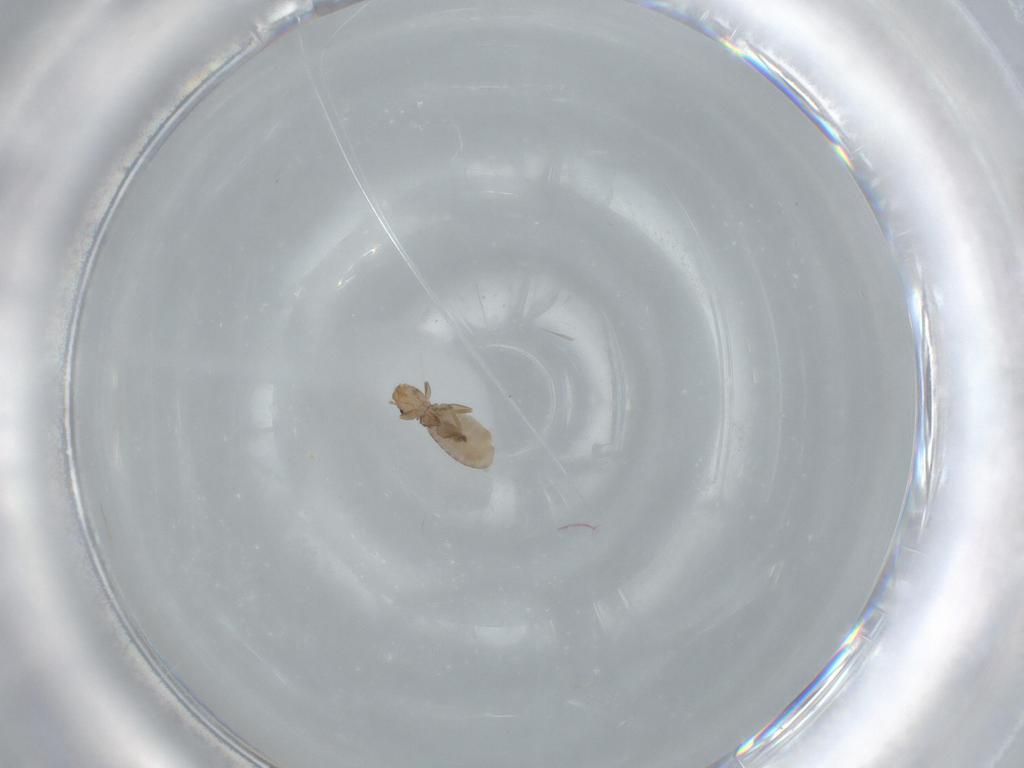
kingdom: Animalia
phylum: Arthropoda
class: Insecta
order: Psocodea
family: Liposcelididae
